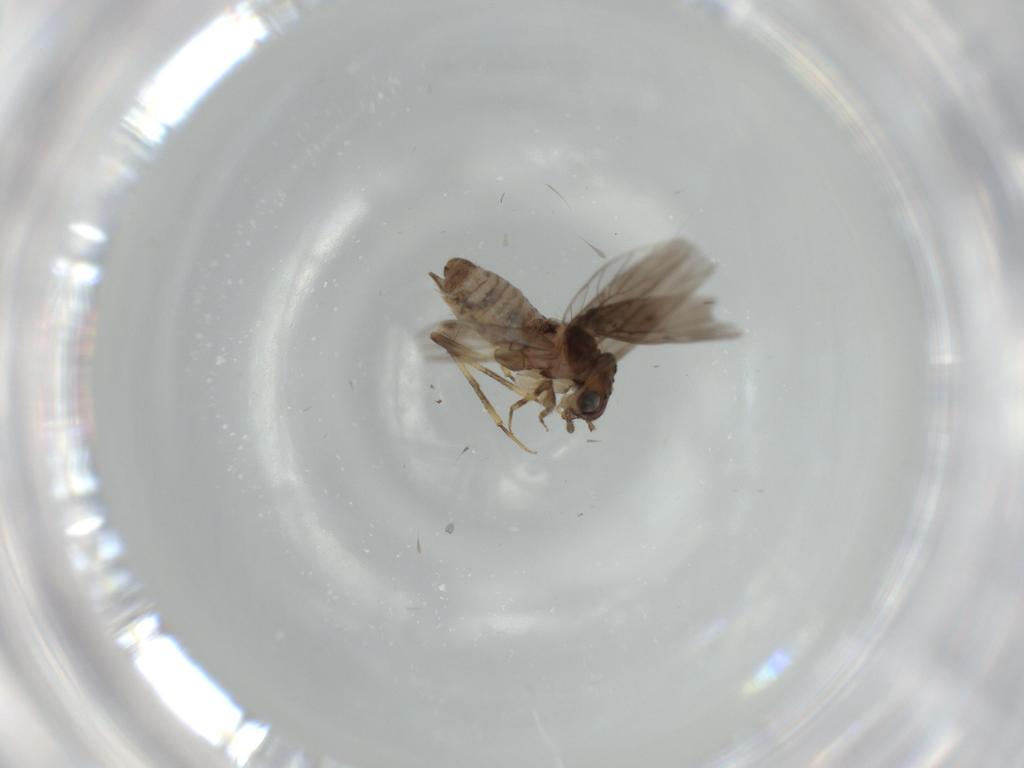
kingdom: Animalia
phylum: Arthropoda
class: Insecta
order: Psocodea
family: Lepidopsocidae
